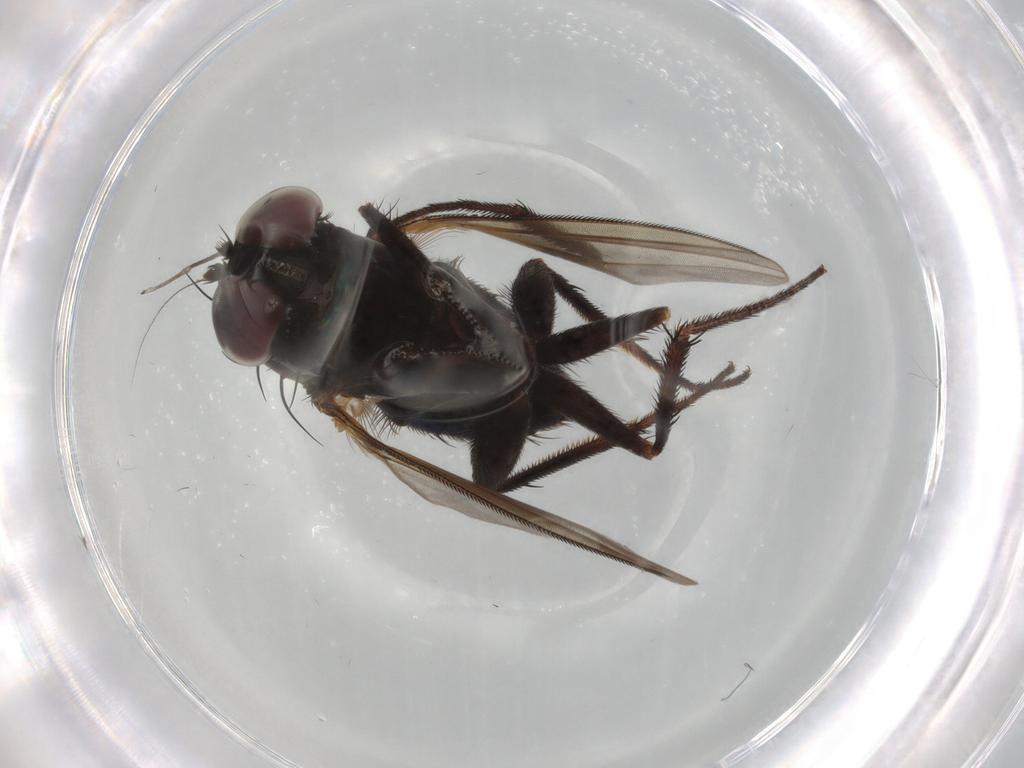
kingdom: Animalia
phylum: Arthropoda
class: Insecta
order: Diptera
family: Dolichopodidae
